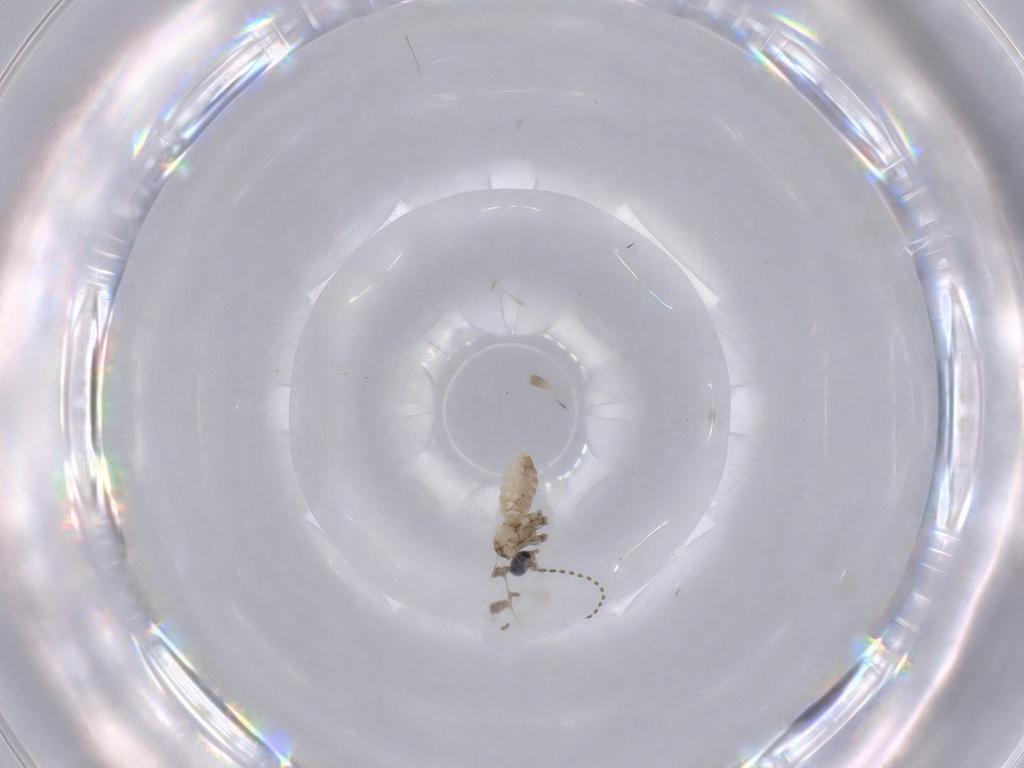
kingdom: Animalia
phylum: Arthropoda
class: Insecta
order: Diptera
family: Cecidomyiidae
